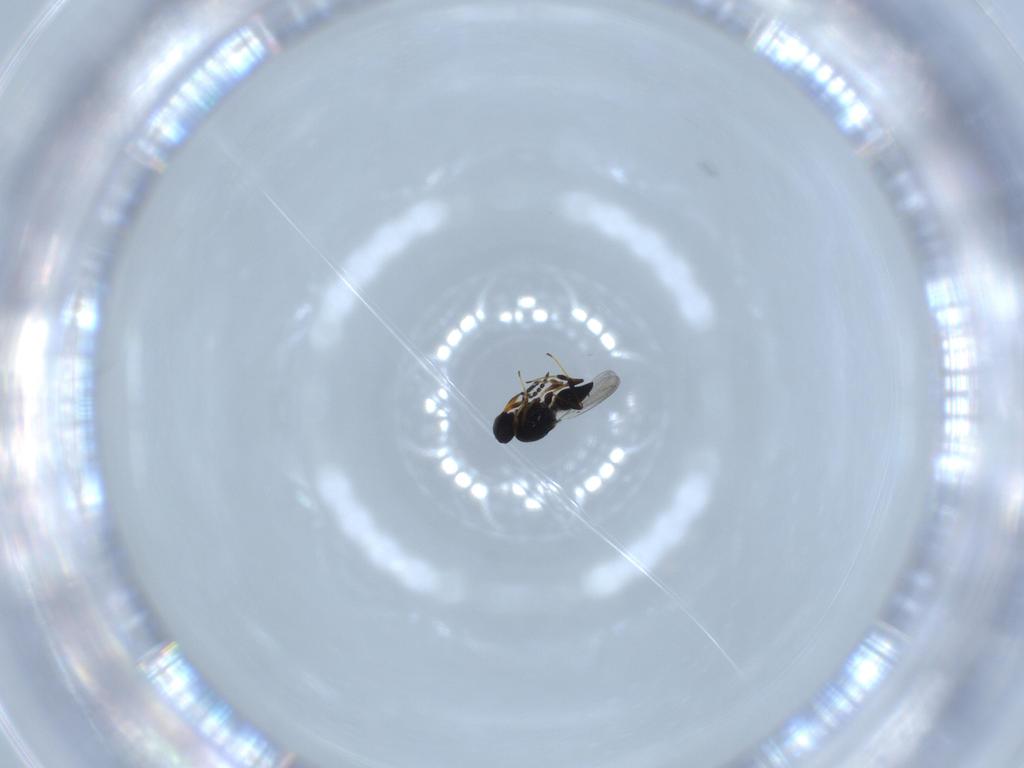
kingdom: Animalia
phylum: Arthropoda
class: Insecta
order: Hymenoptera
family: Platygastridae
